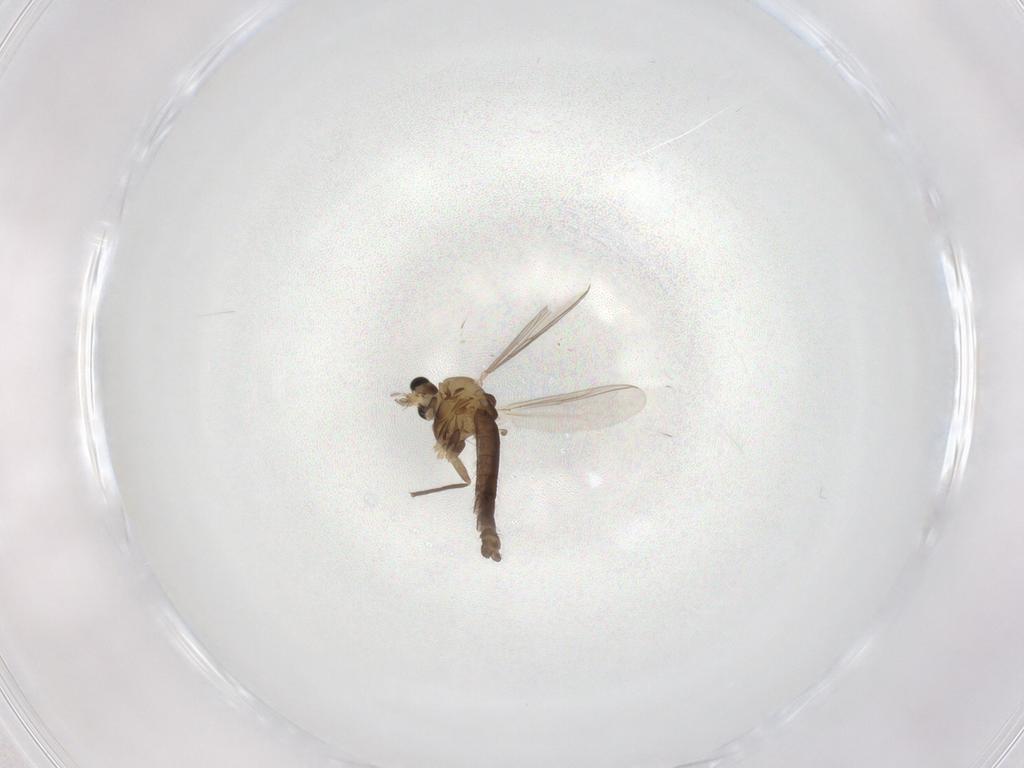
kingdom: Animalia
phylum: Arthropoda
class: Insecta
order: Diptera
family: Chironomidae
